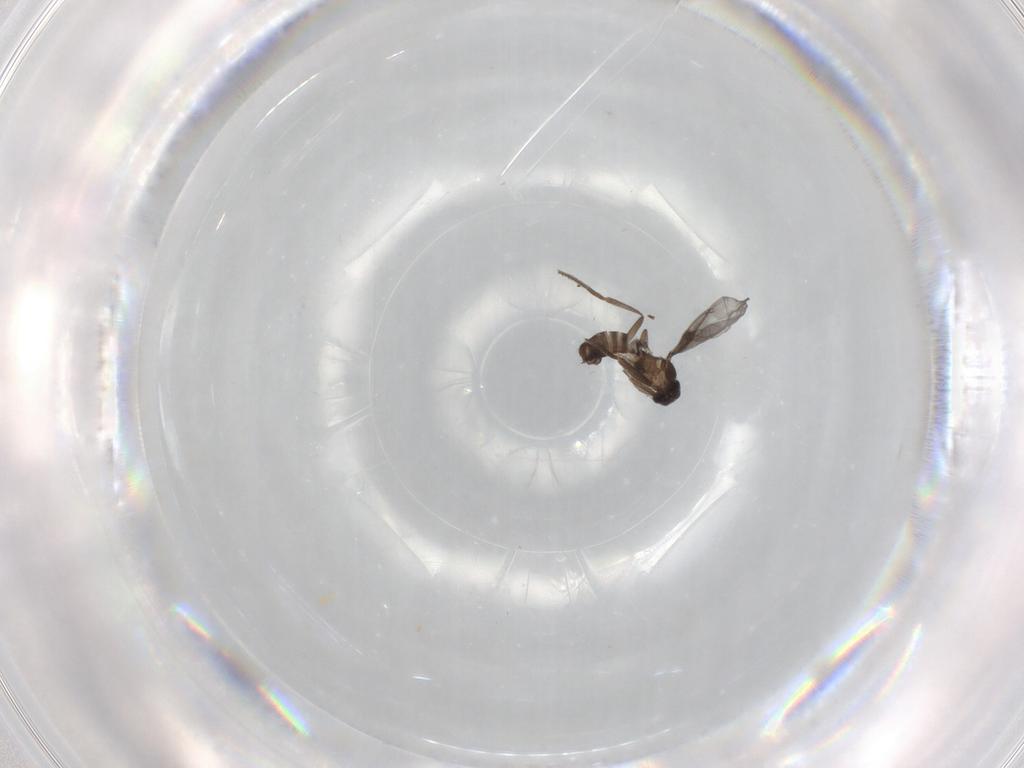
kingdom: Animalia
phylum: Arthropoda
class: Insecta
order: Diptera
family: Phoridae
